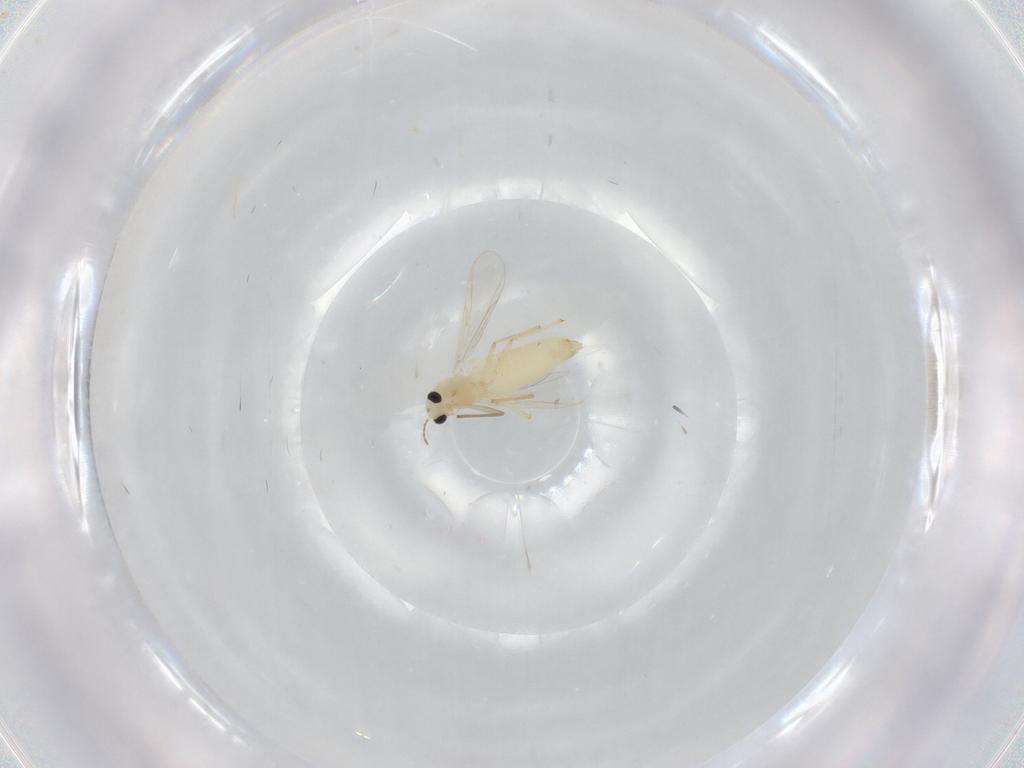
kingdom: Animalia
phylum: Arthropoda
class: Insecta
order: Diptera
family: Chironomidae
